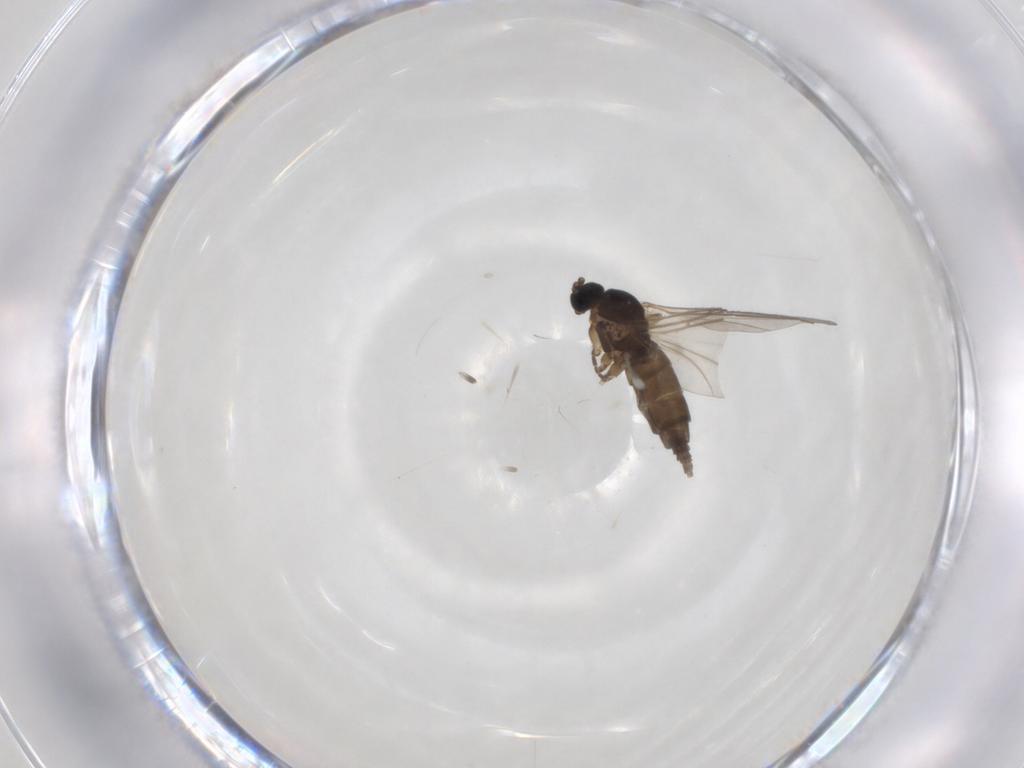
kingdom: Animalia
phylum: Arthropoda
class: Insecta
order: Diptera
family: Chironomidae
